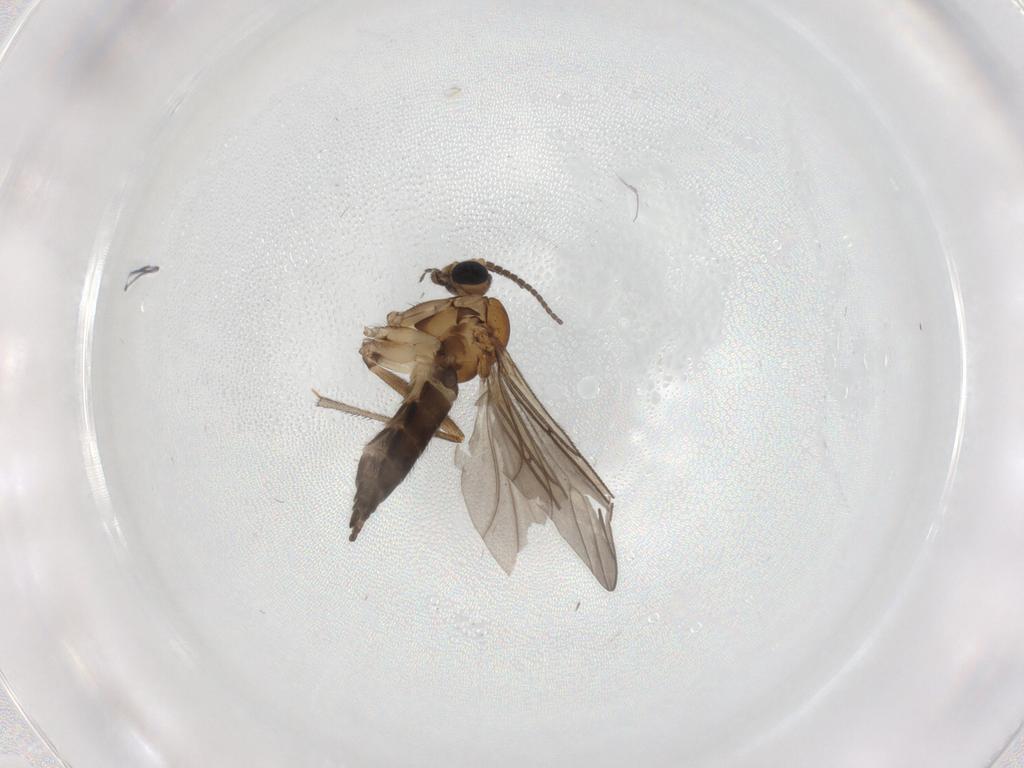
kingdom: Animalia
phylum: Arthropoda
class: Insecta
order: Diptera
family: Sciaridae
